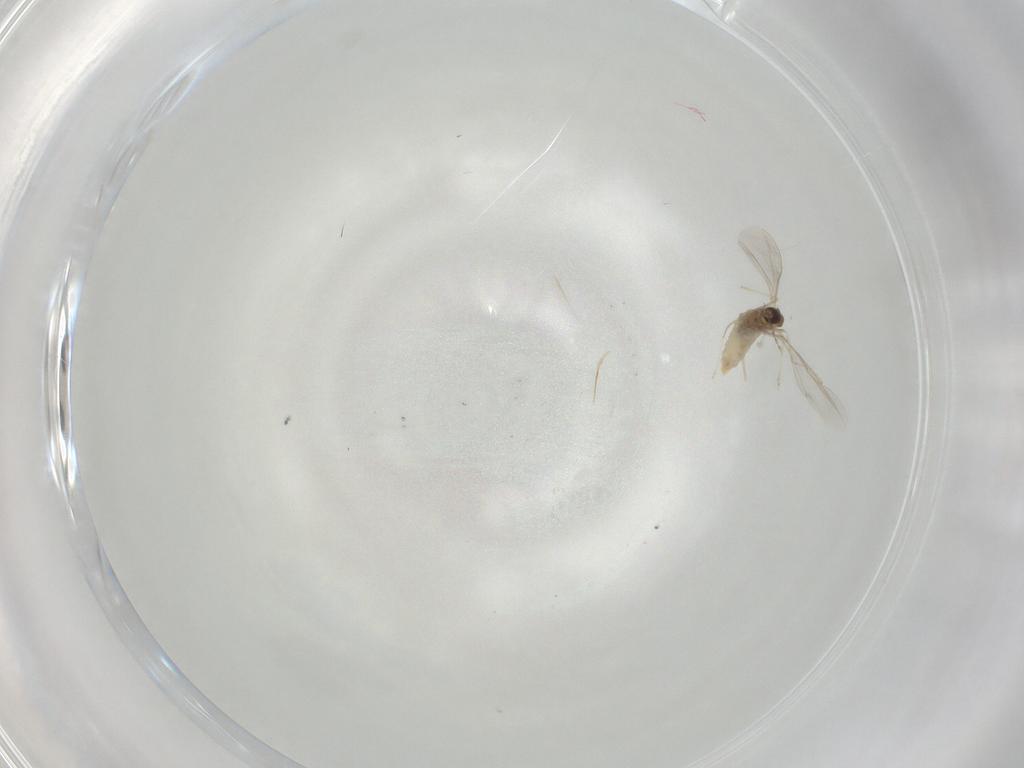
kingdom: Animalia
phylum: Arthropoda
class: Insecta
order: Diptera
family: Cecidomyiidae
